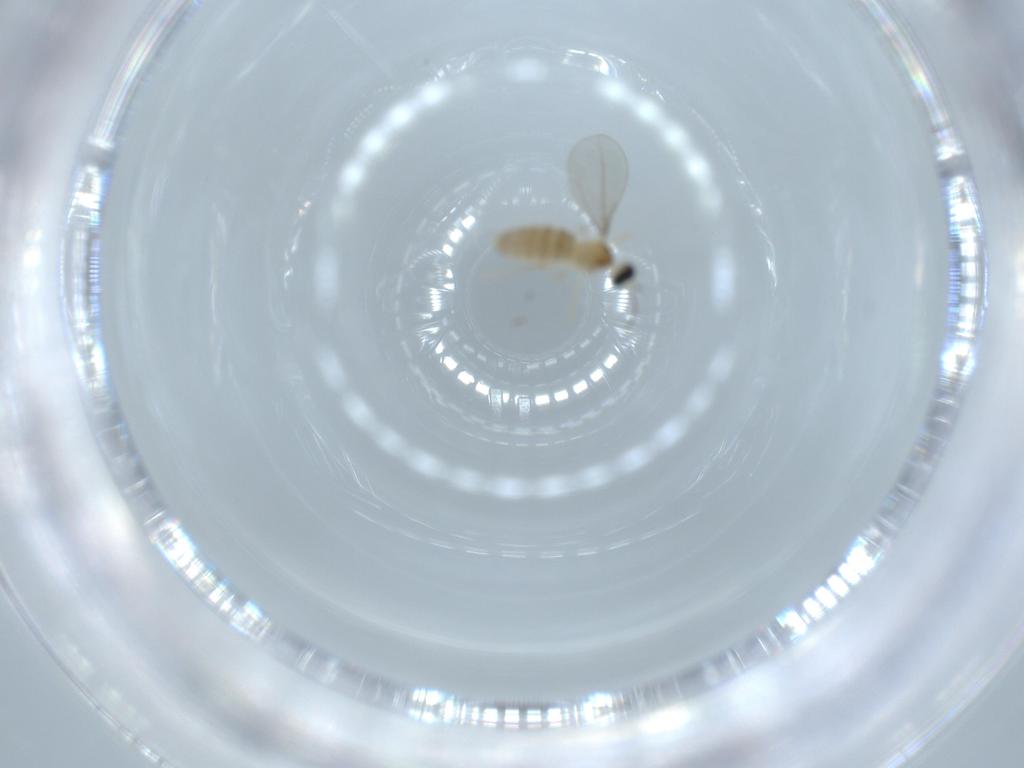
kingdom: Animalia
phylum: Arthropoda
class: Insecta
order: Diptera
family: Cecidomyiidae
